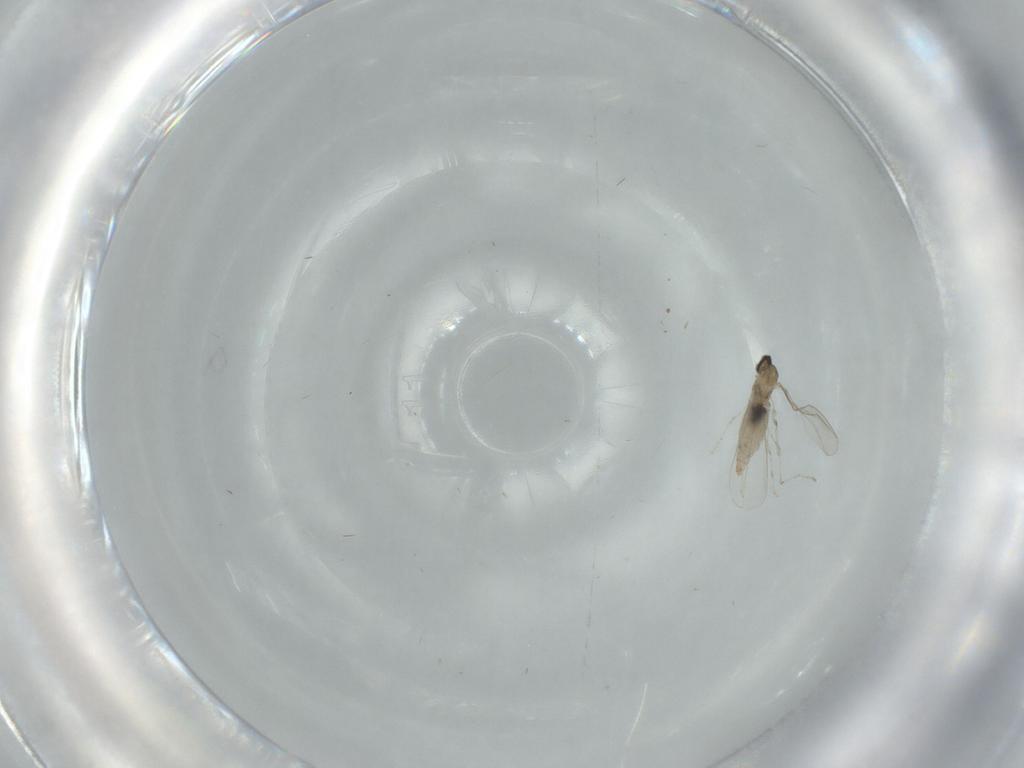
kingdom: Animalia
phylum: Arthropoda
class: Insecta
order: Diptera
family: Cecidomyiidae
